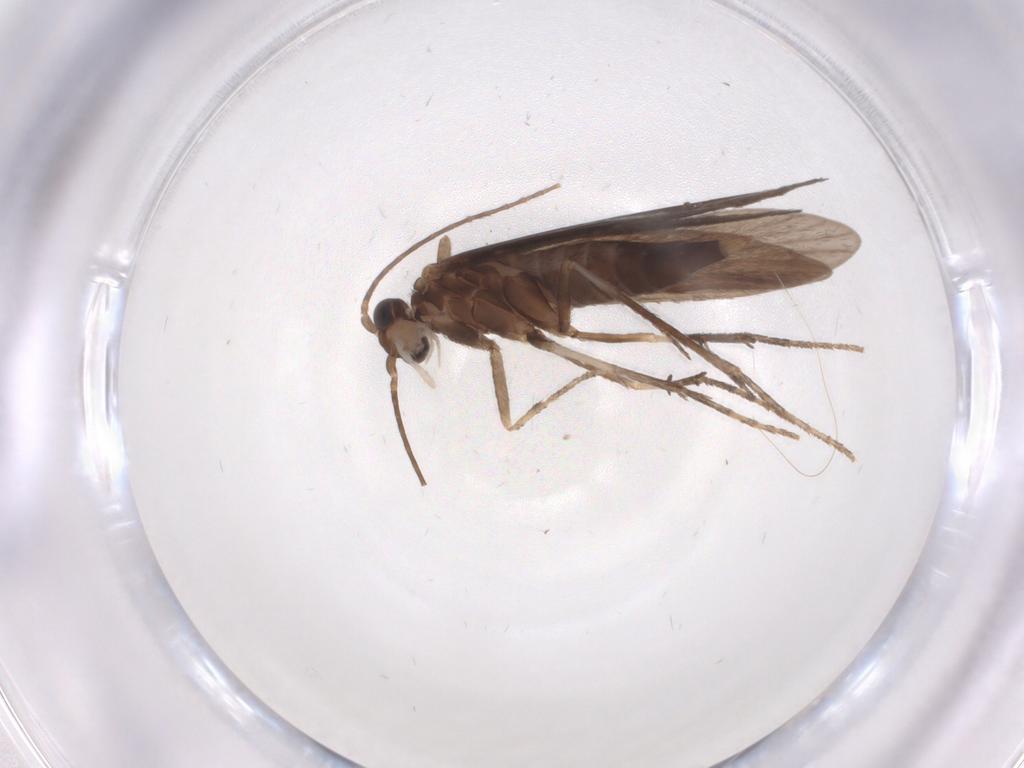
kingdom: Animalia
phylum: Arthropoda
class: Insecta
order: Trichoptera
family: Xiphocentronidae
